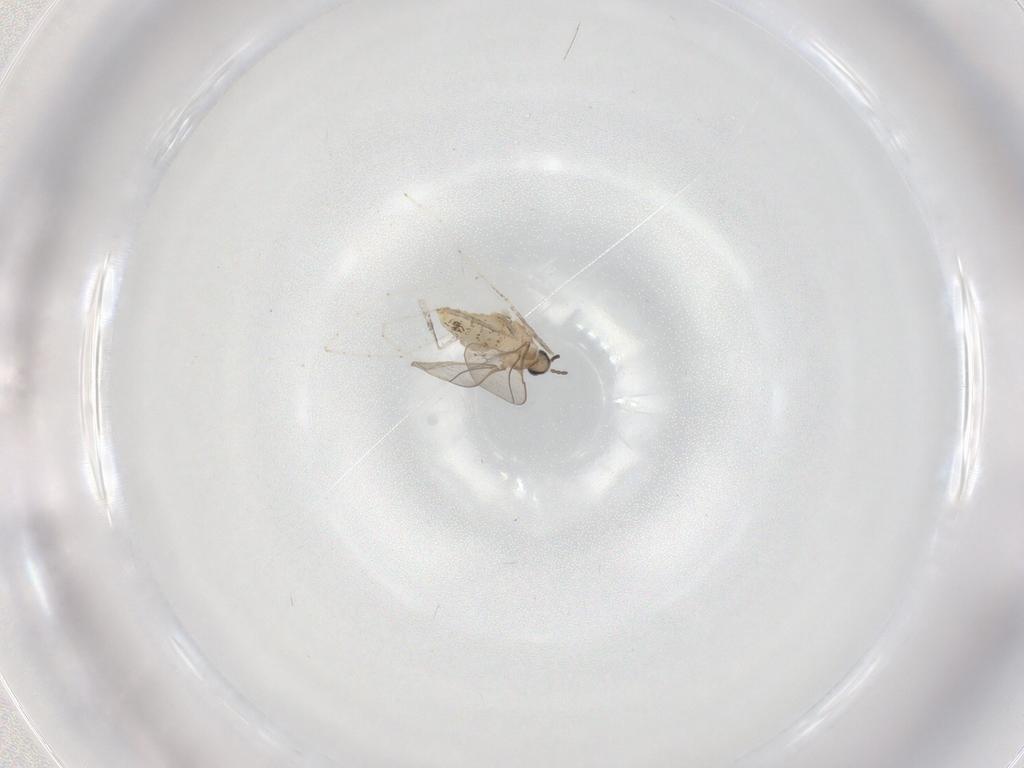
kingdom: Animalia
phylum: Arthropoda
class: Insecta
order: Diptera
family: Cecidomyiidae
